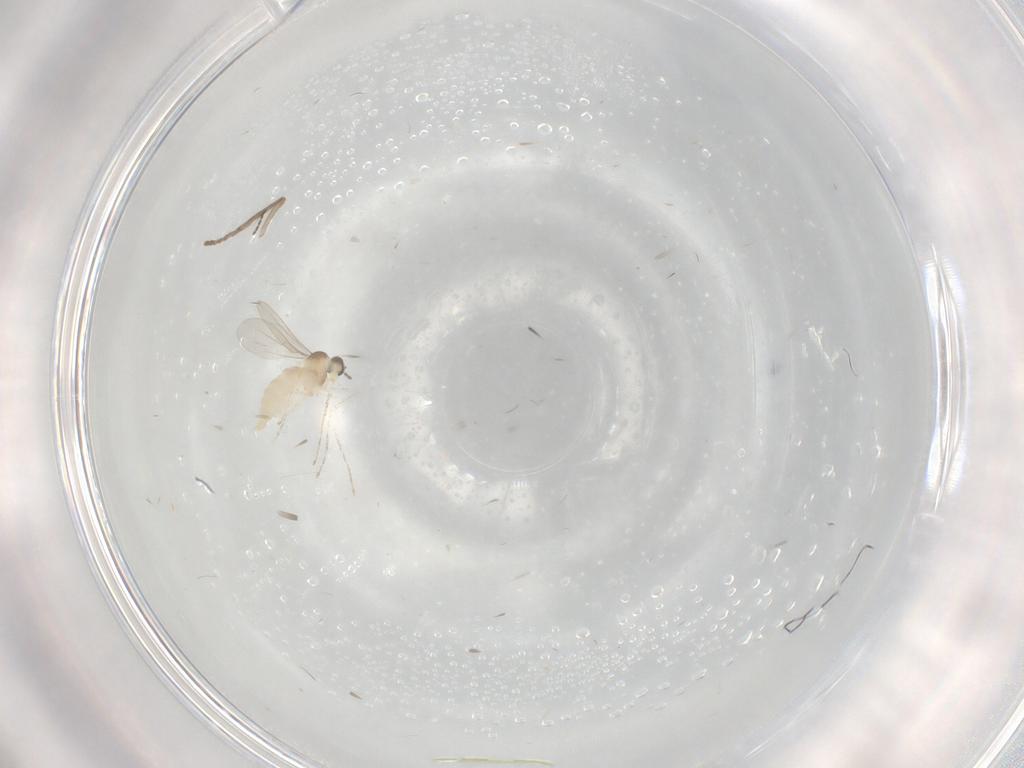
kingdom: Animalia
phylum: Arthropoda
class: Insecta
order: Diptera
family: Psychodidae
